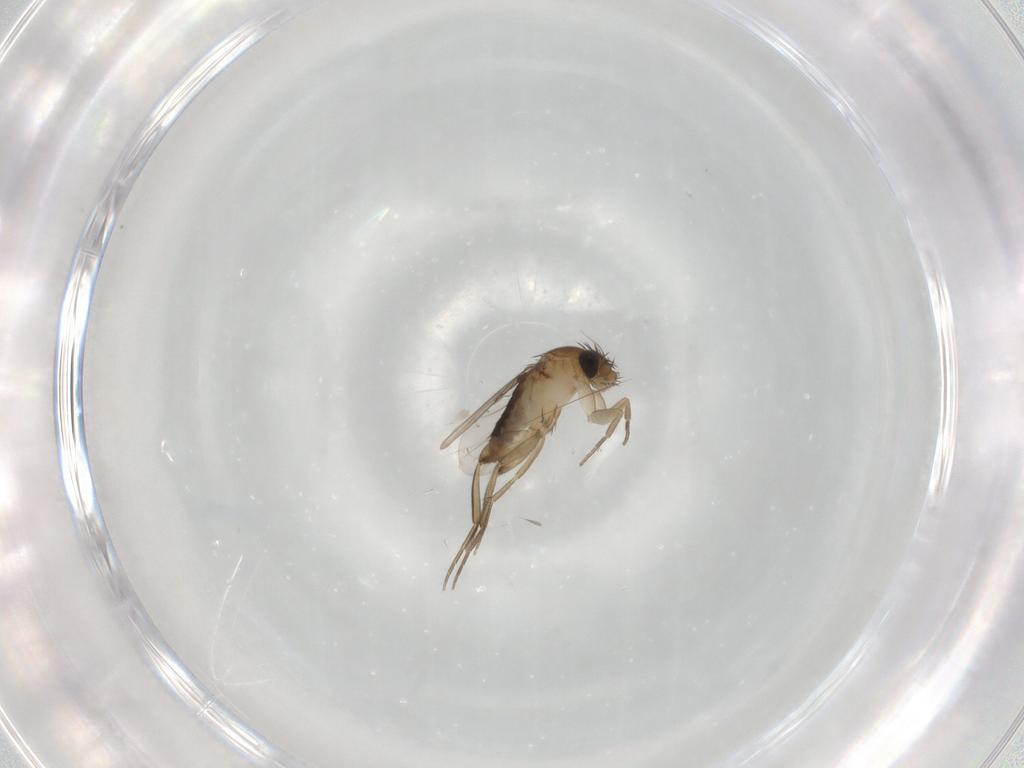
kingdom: Animalia
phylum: Arthropoda
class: Insecta
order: Diptera
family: Phoridae
